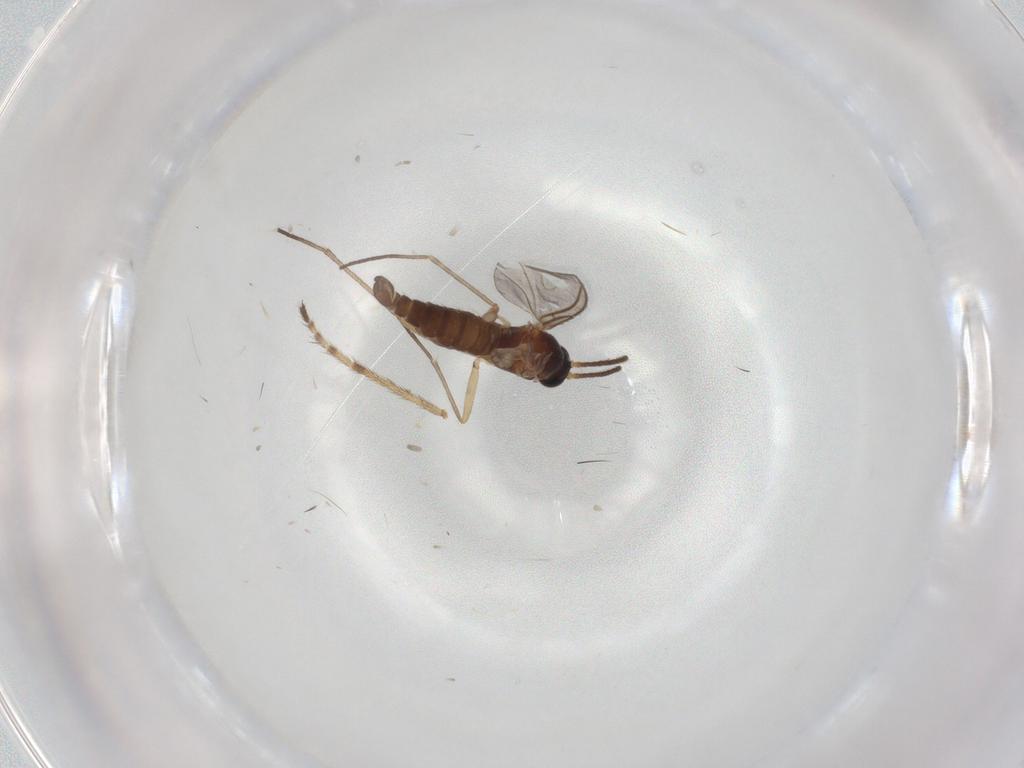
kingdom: Animalia
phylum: Arthropoda
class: Insecta
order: Diptera
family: Sciaridae
